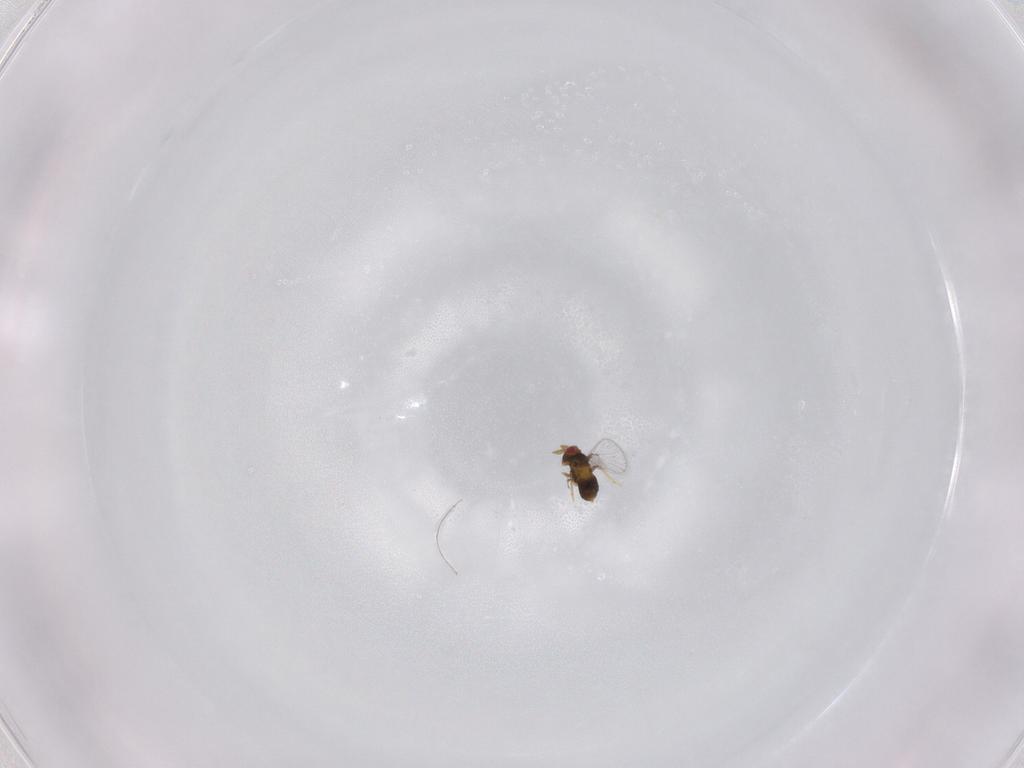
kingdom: Animalia
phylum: Arthropoda
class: Insecta
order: Hymenoptera
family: Trichogrammatidae
